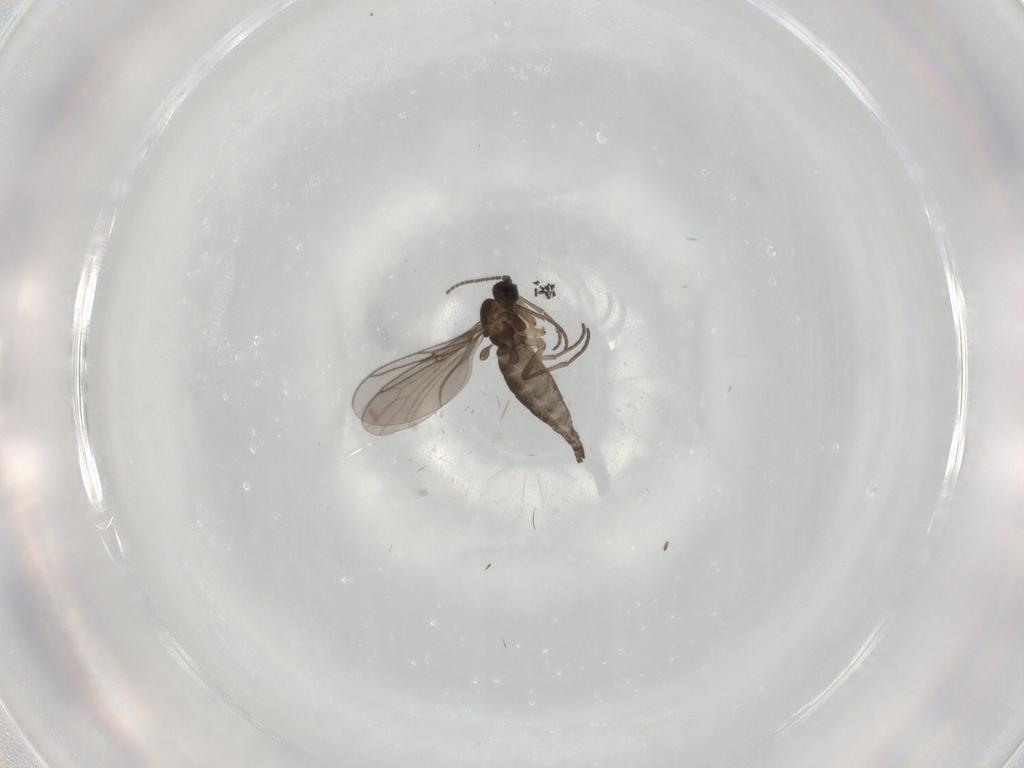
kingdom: Animalia
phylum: Arthropoda
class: Insecta
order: Diptera
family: Sciaridae
